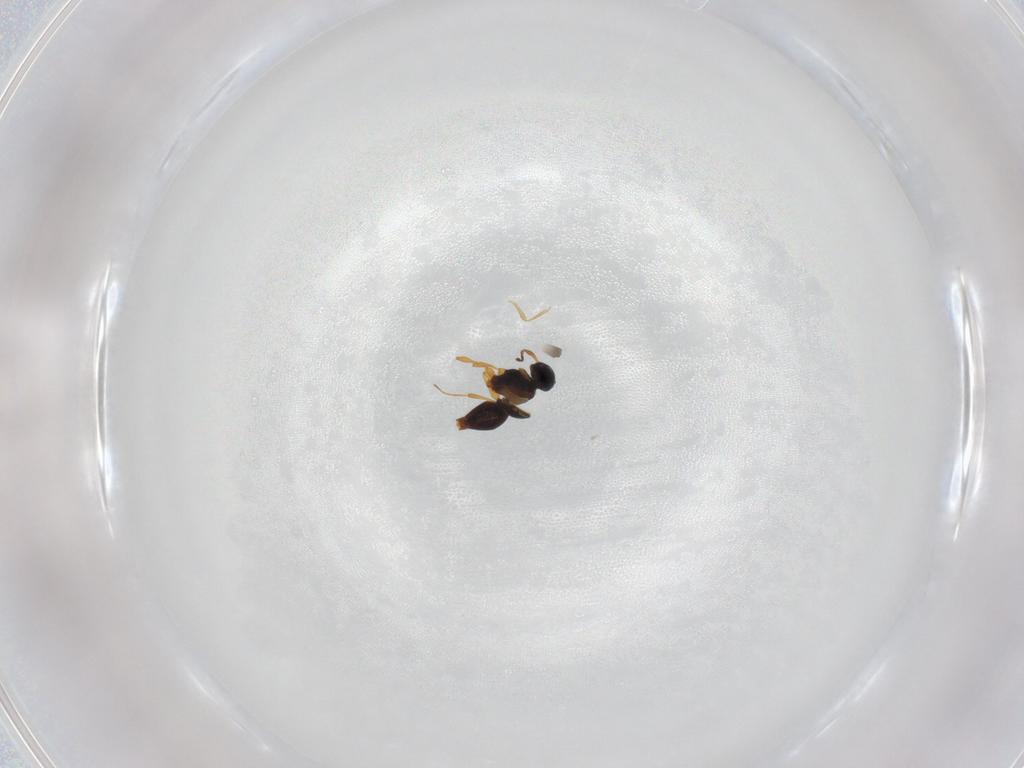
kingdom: Animalia
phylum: Arthropoda
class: Insecta
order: Hymenoptera
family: Platygastridae
